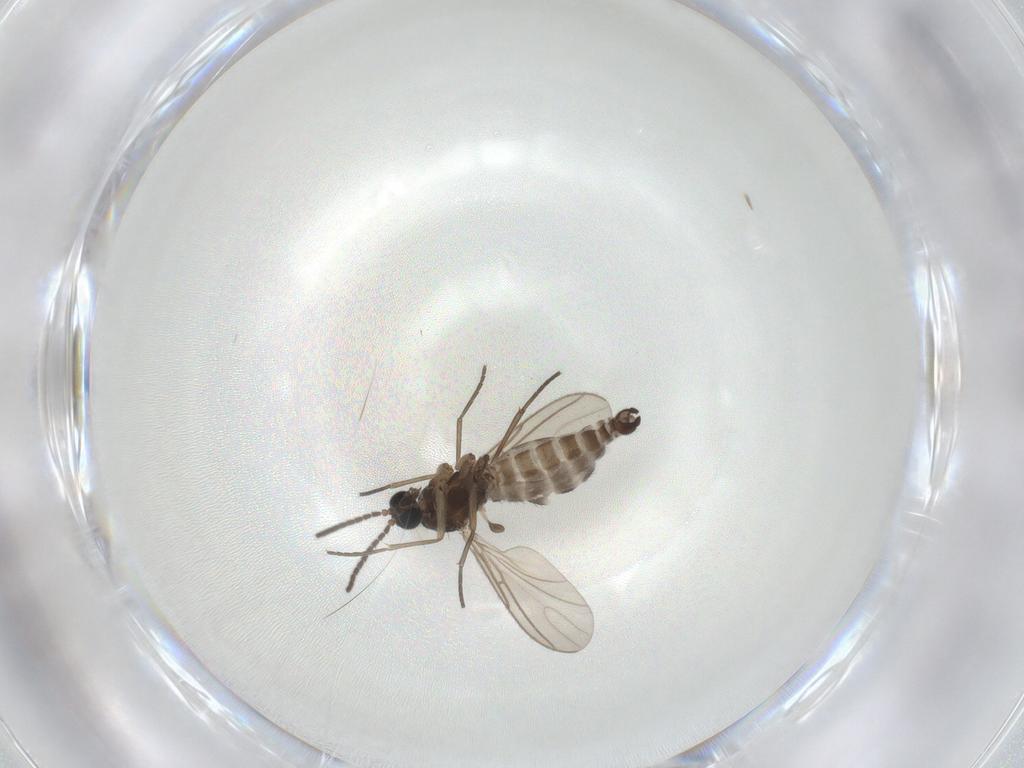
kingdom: Animalia
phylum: Arthropoda
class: Insecta
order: Diptera
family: Sciaridae
